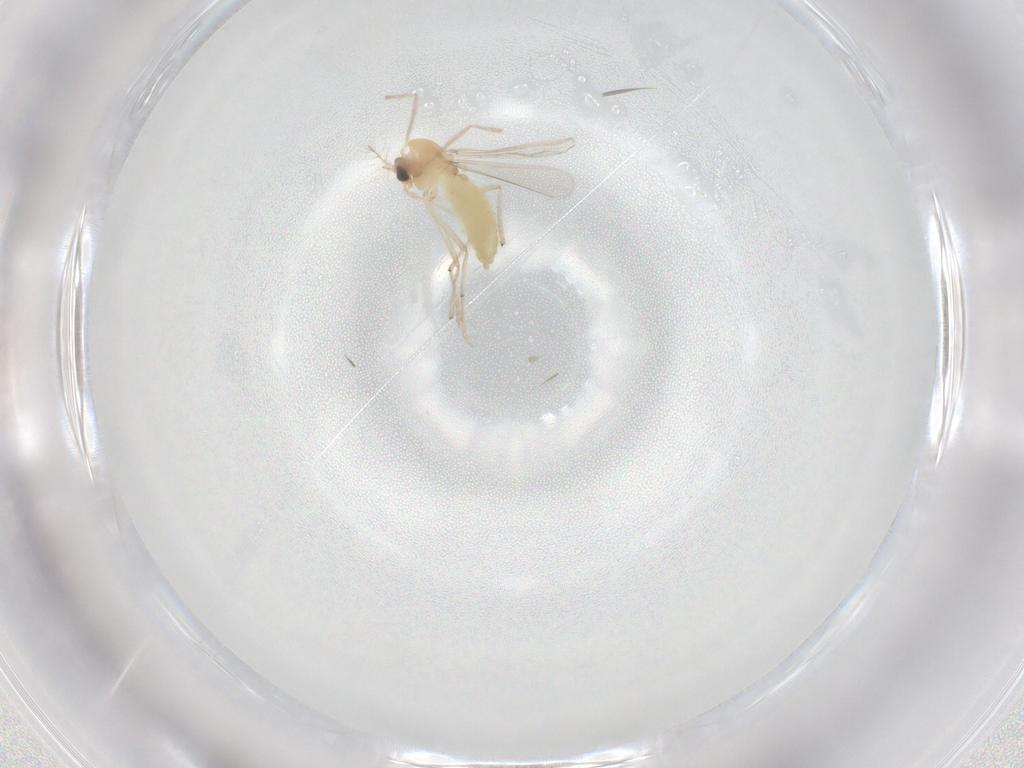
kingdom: Animalia
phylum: Arthropoda
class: Insecta
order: Diptera
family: Chironomidae
